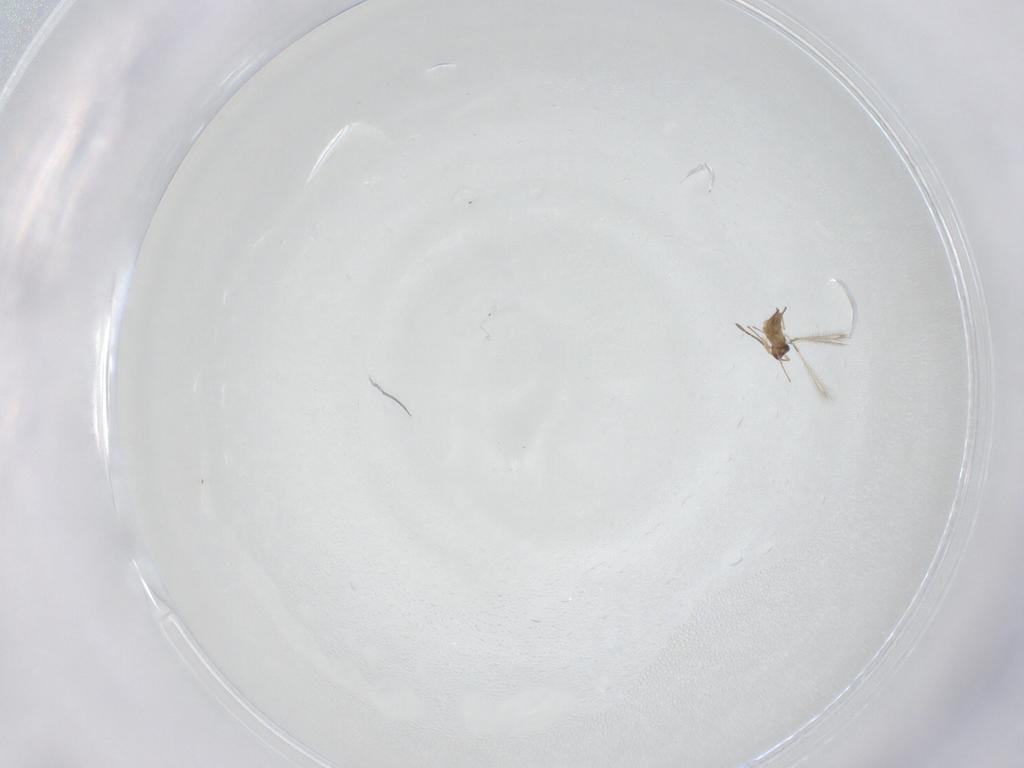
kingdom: Animalia
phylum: Arthropoda
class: Insecta
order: Hymenoptera
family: Mymaridae
